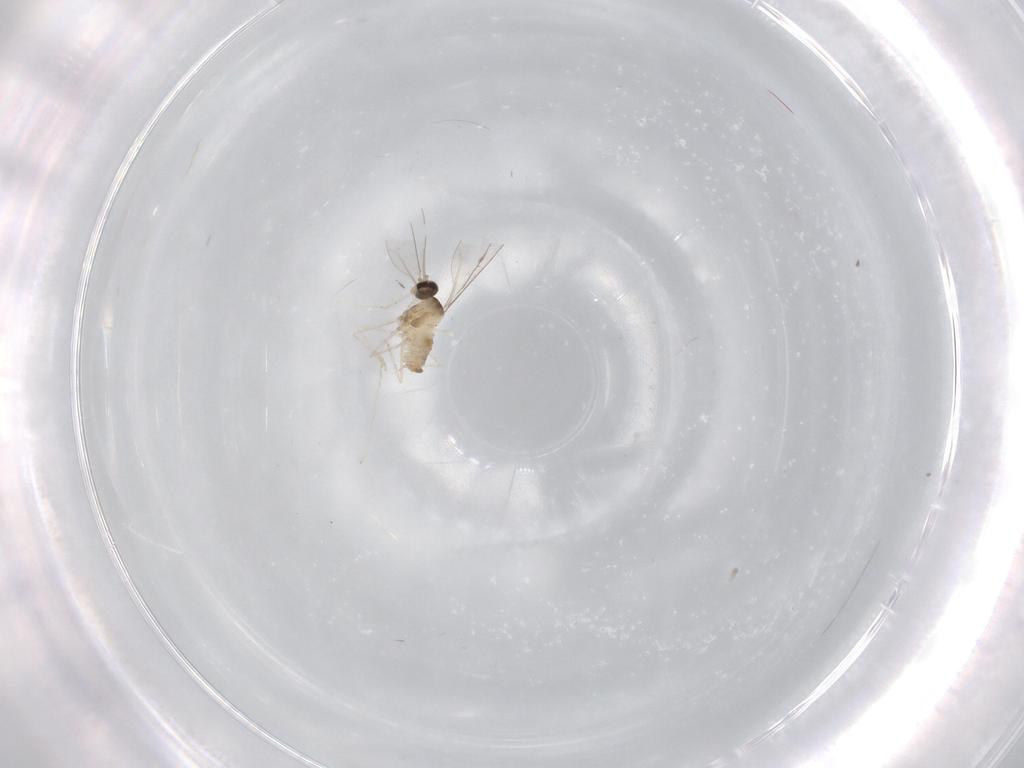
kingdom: Animalia
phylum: Arthropoda
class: Insecta
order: Diptera
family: Cecidomyiidae
